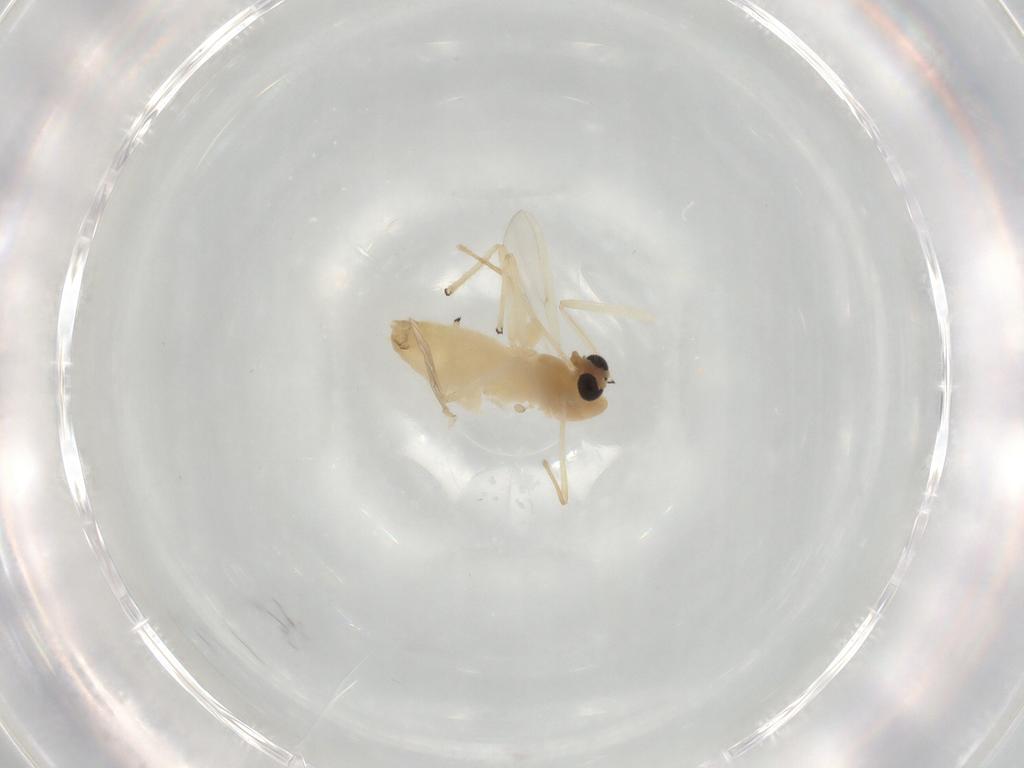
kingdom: Animalia
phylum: Arthropoda
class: Insecta
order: Diptera
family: Chironomidae
